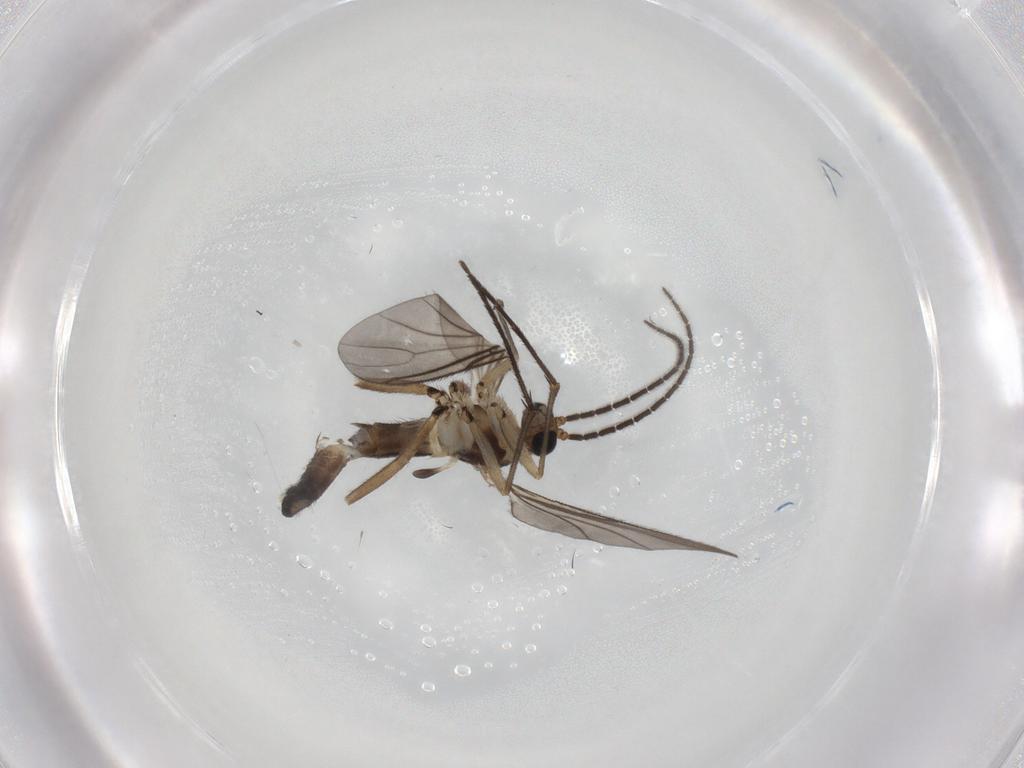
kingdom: Animalia
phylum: Arthropoda
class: Insecta
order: Diptera
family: Sciaridae
